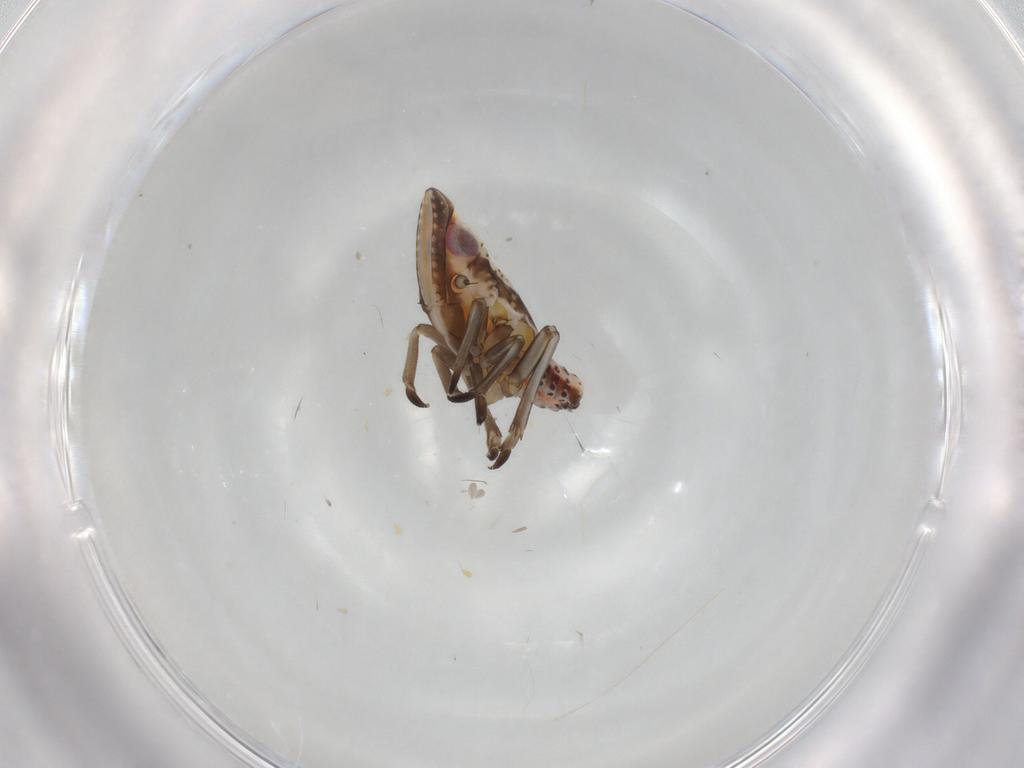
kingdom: Animalia
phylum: Arthropoda
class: Insecta
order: Hemiptera
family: Tropiduchidae
